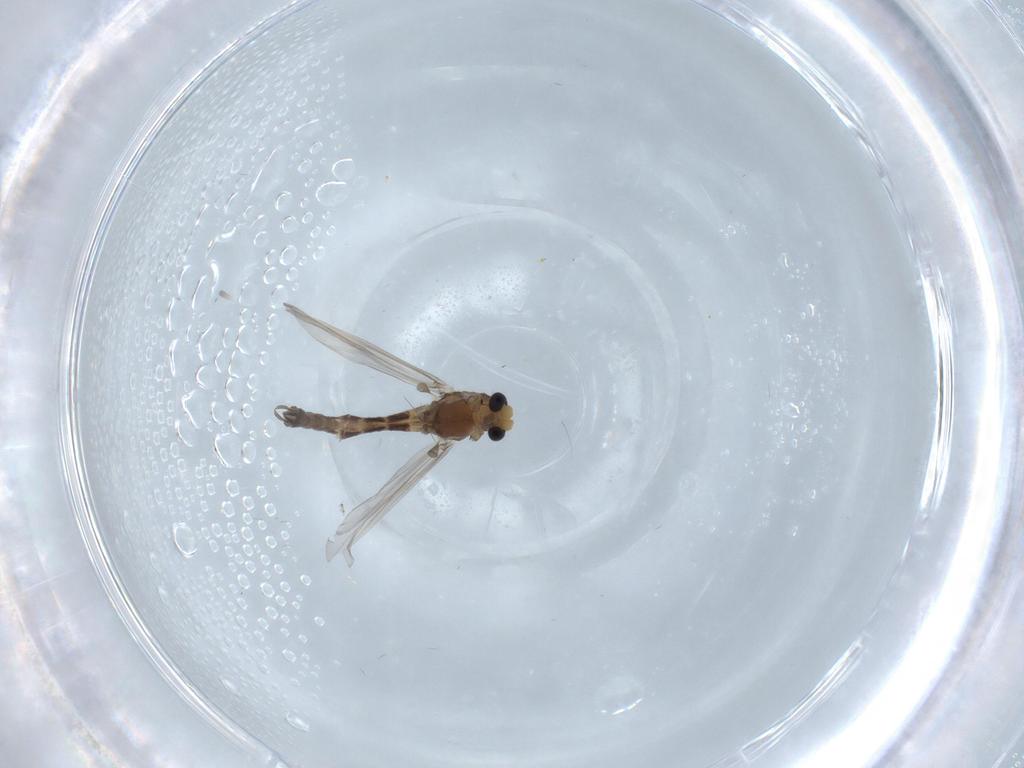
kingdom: Animalia
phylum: Arthropoda
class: Insecta
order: Diptera
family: Chironomidae
